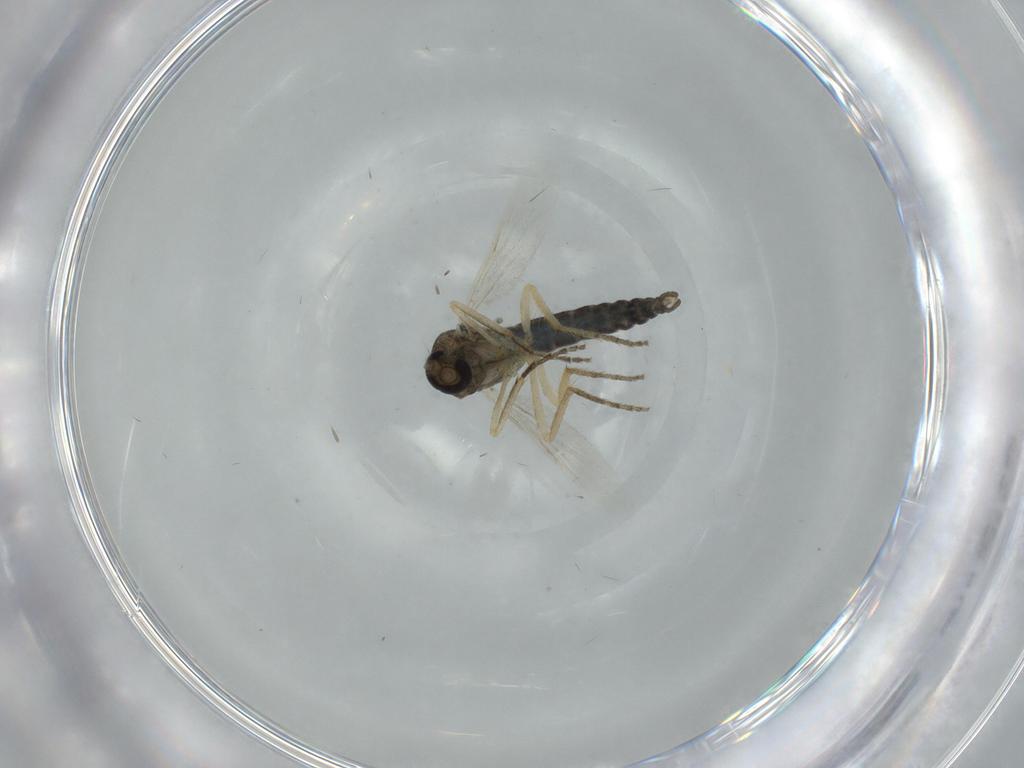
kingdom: Animalia
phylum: Arthropoda
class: Insecta
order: Diptera
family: Ceratopogonidae
